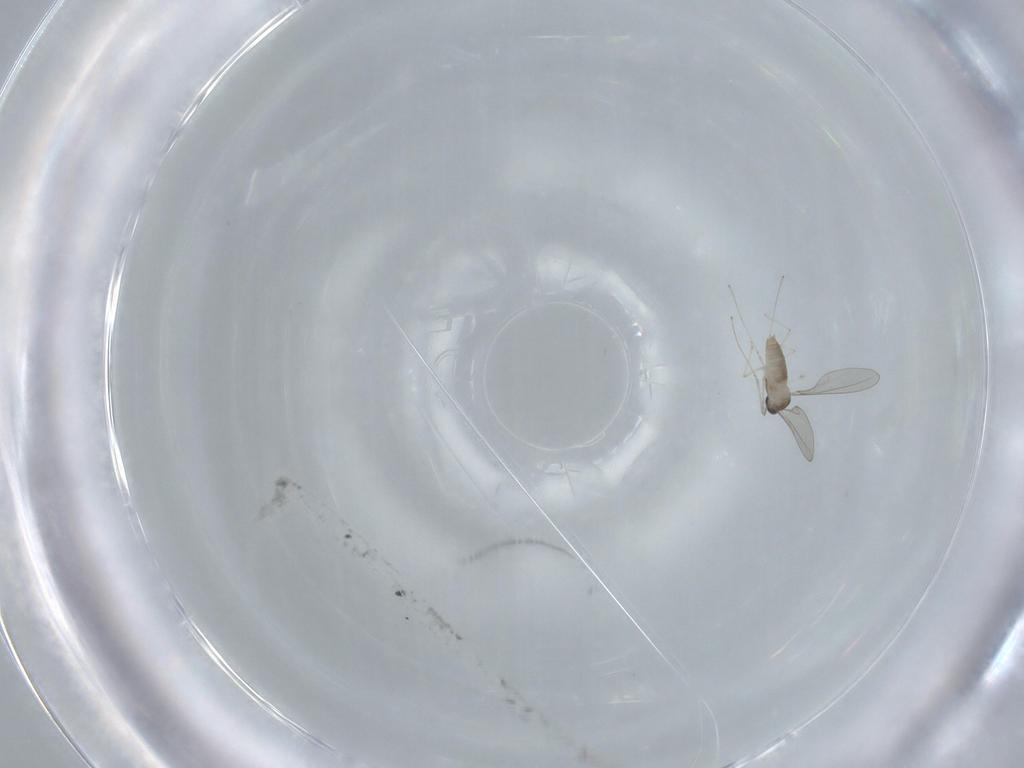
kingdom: Animalia
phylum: Arthropoda
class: Insecta
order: Diptera
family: Cecidomyiidae
